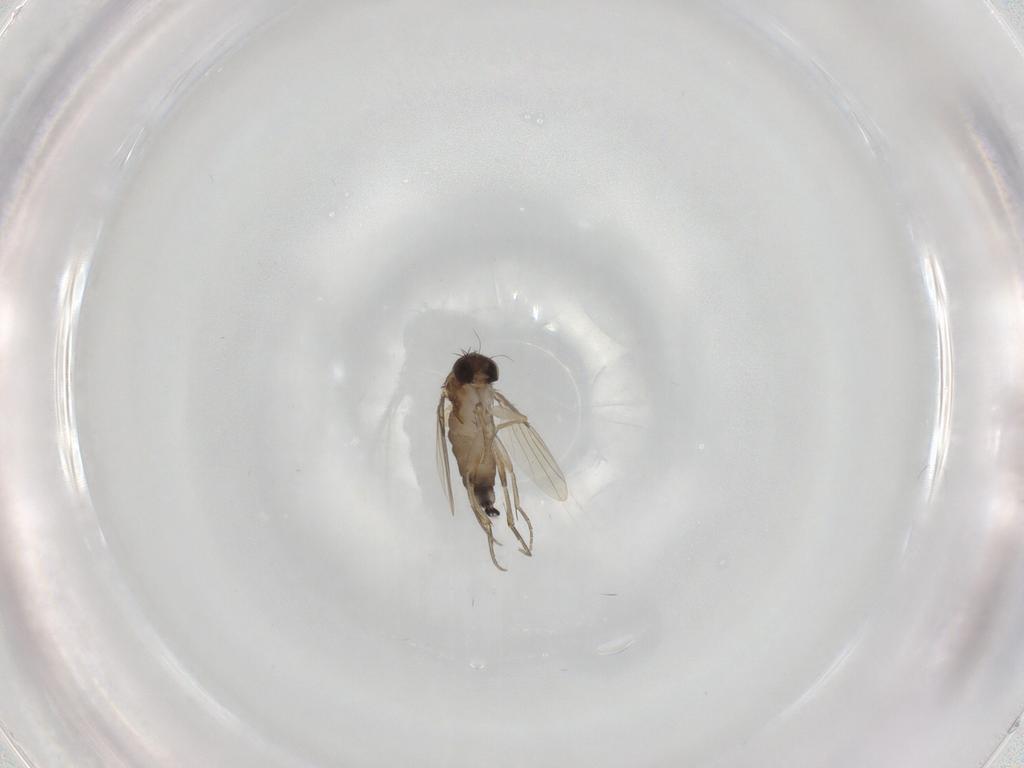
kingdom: Animalia
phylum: Arthropoda
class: Insecta
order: Diptera
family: Phoridae
